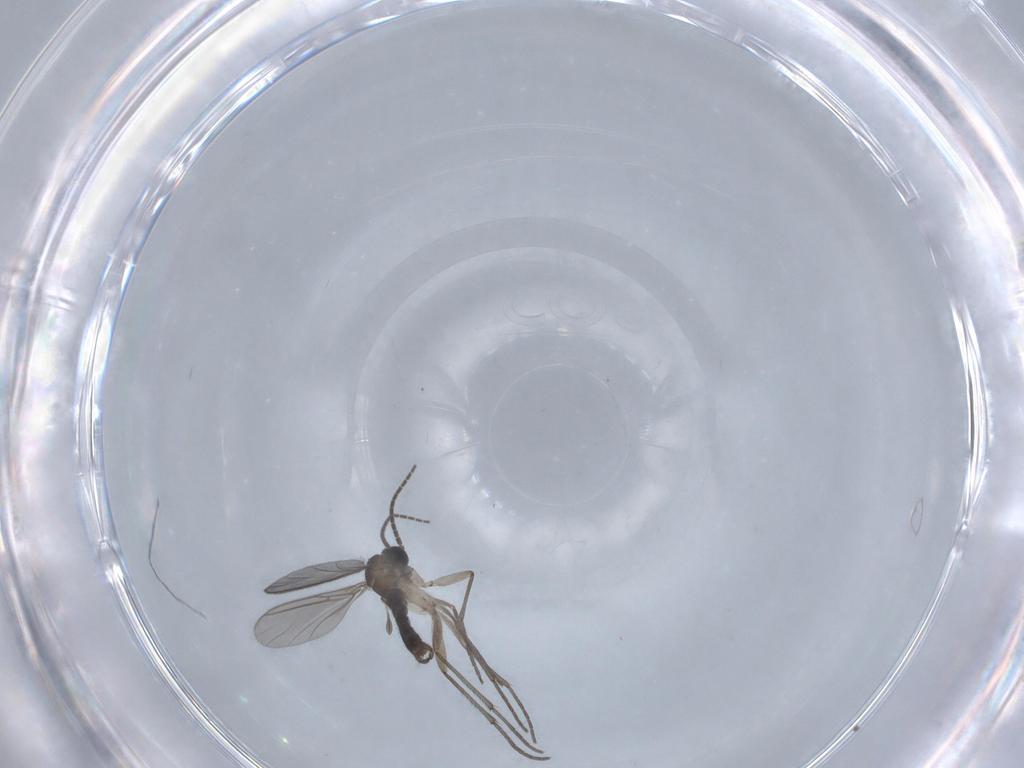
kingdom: Animalia
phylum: Arthropoda
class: Insecta
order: Diptera
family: Sciaridae
